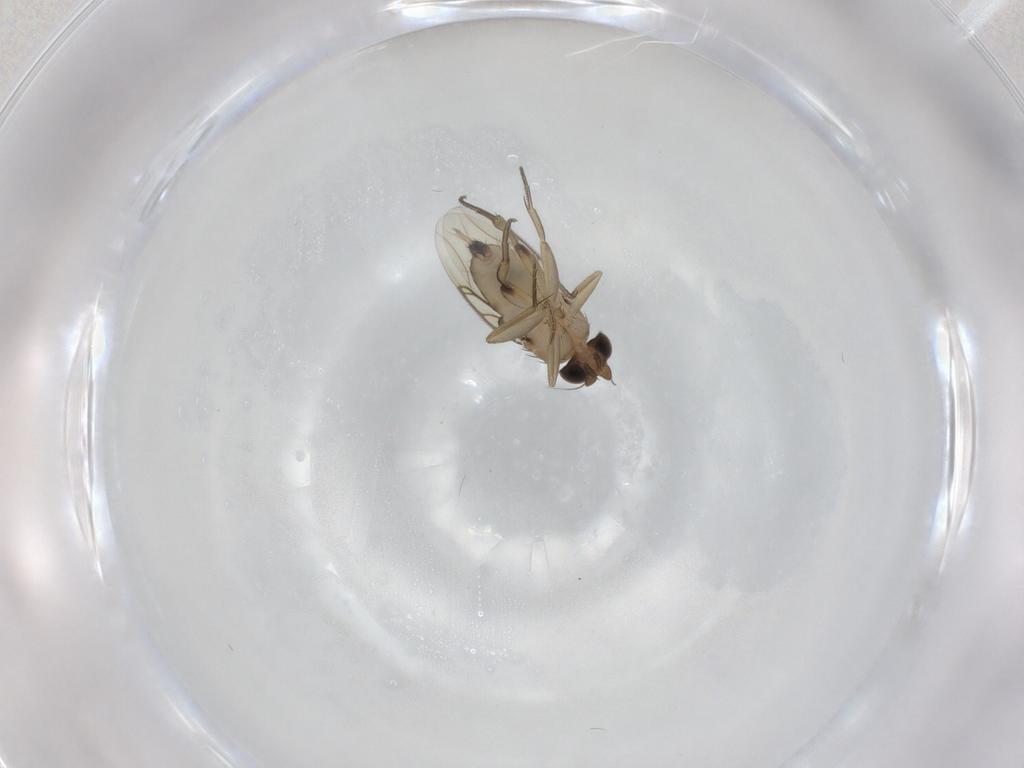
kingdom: Animalia
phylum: Arthropoda
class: Insecta
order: Diptera
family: Phoridae
